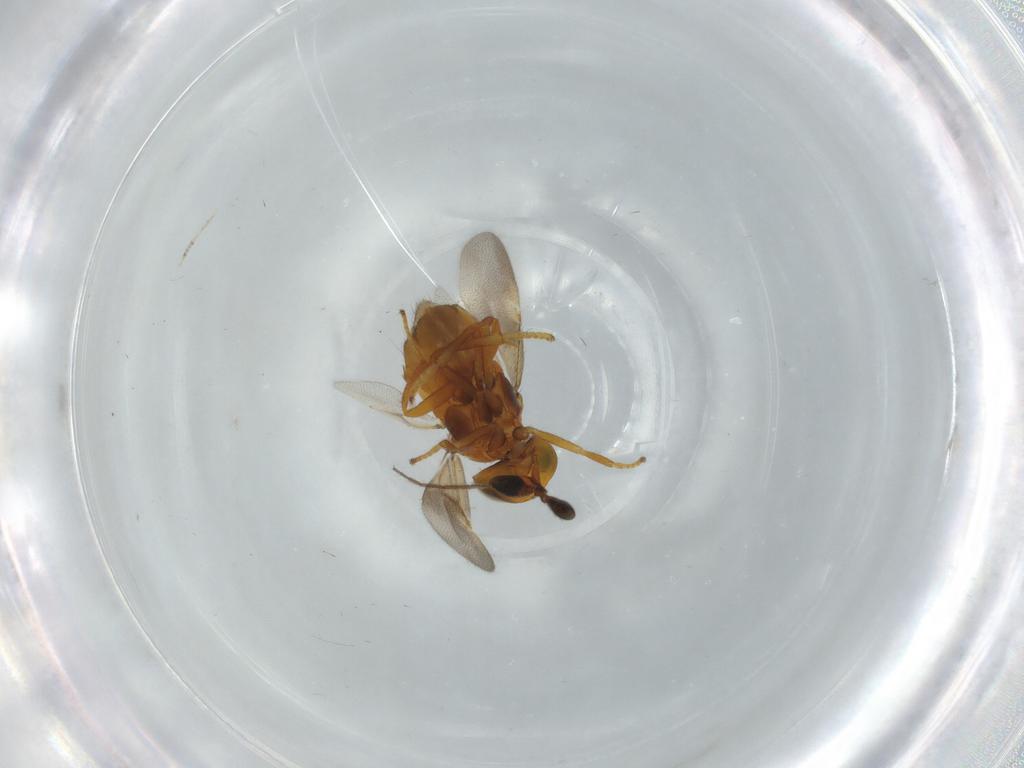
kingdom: Animalia
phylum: Arthropoda
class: Insecta
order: Hymenoptera
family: Encyrtidae
